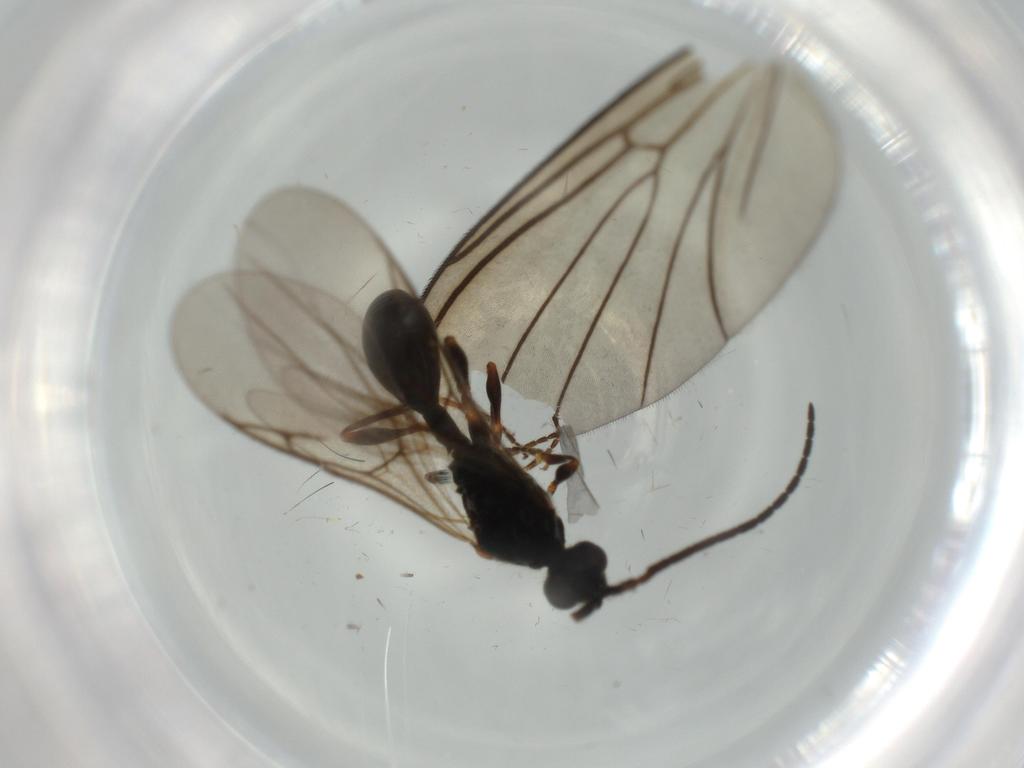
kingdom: Animalia
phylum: Arthropoda
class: Insecta
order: Hymenoptera
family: Diapriidae
